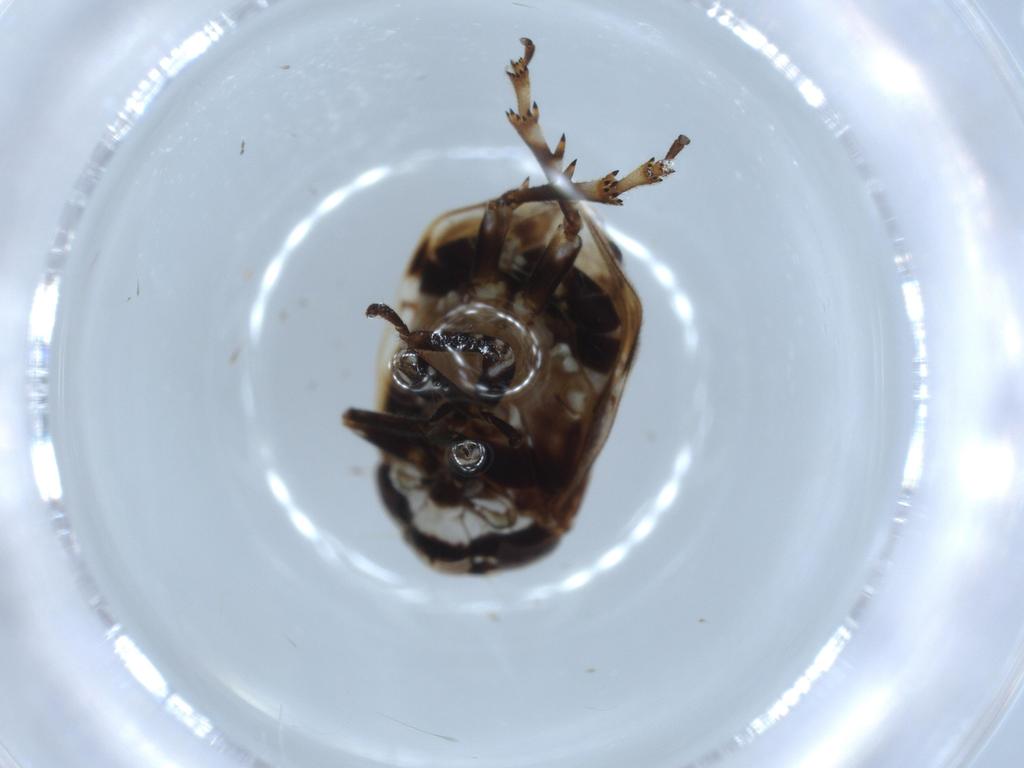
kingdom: Animalia
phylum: Arthropoda
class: Insecta
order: Hemiptera
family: Clastopteridae
